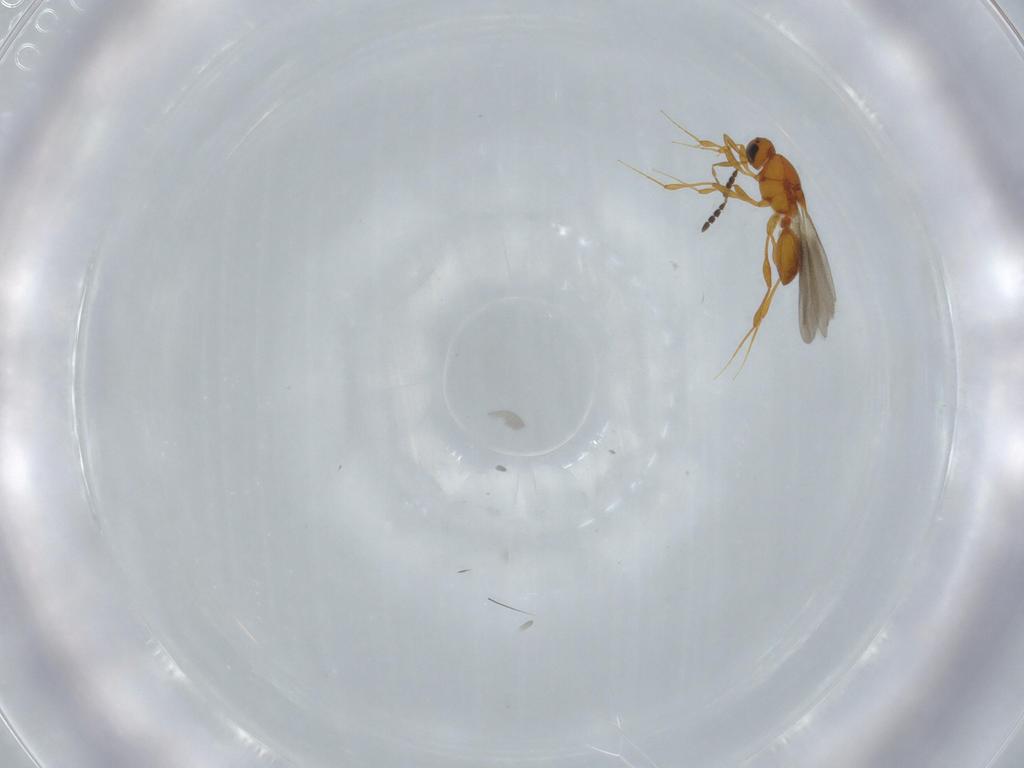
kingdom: Animalia
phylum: Arthropoda
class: Insecta
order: Hymenoptera
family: Platygastridae
